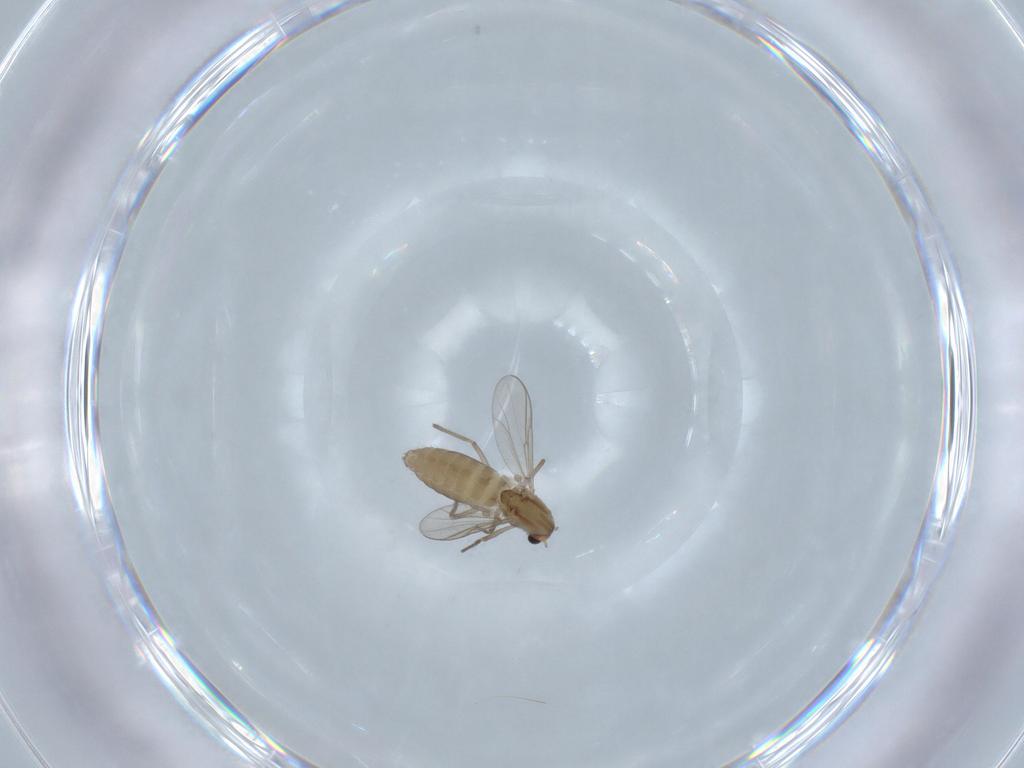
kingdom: Animalia
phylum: Arthropoda
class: Insecta
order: Diptera
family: Chironomidae
